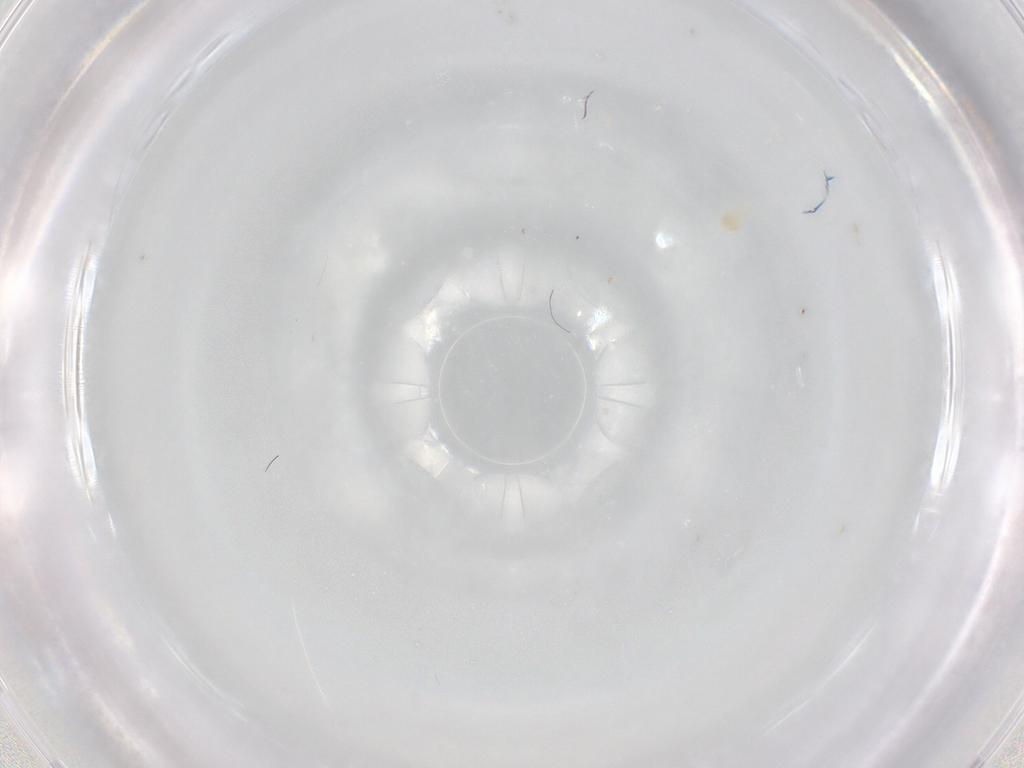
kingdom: Animalia
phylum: Arthropoda
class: Arachnida
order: Trombidiformes
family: Eupodidae
